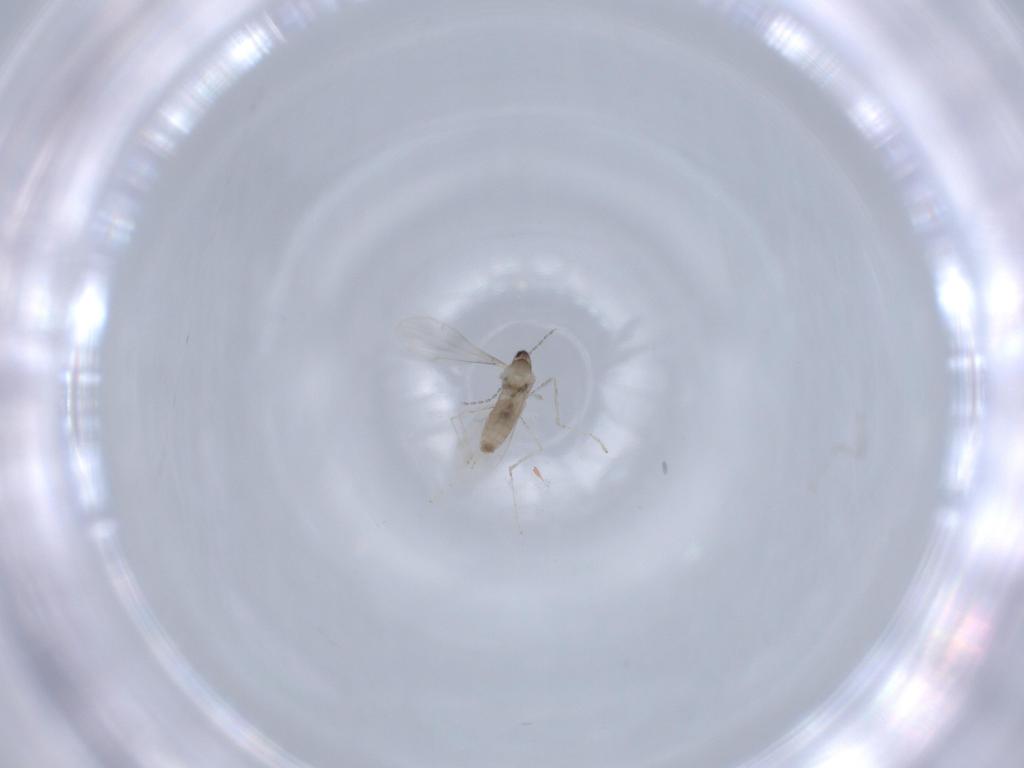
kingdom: Animalia
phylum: Arthropoda
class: Insecta
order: Diptera
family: Cecidomyiidae
